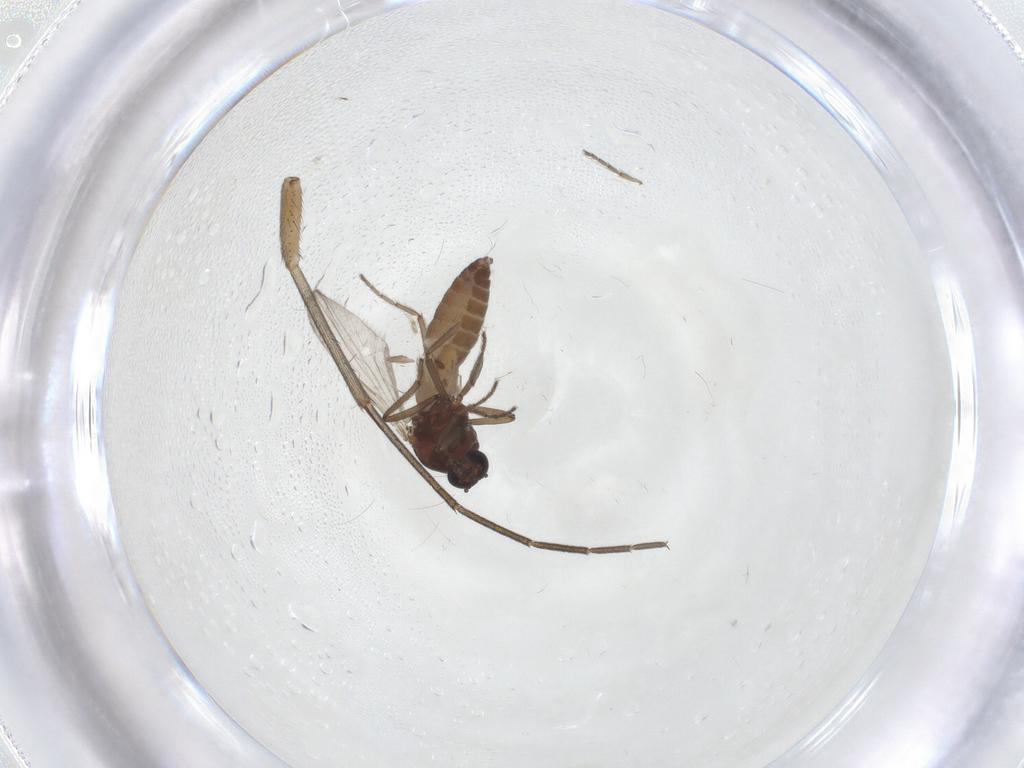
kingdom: Animalia
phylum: Arthropoda
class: Insecta
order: Diptera
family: Ceratopogonidae
